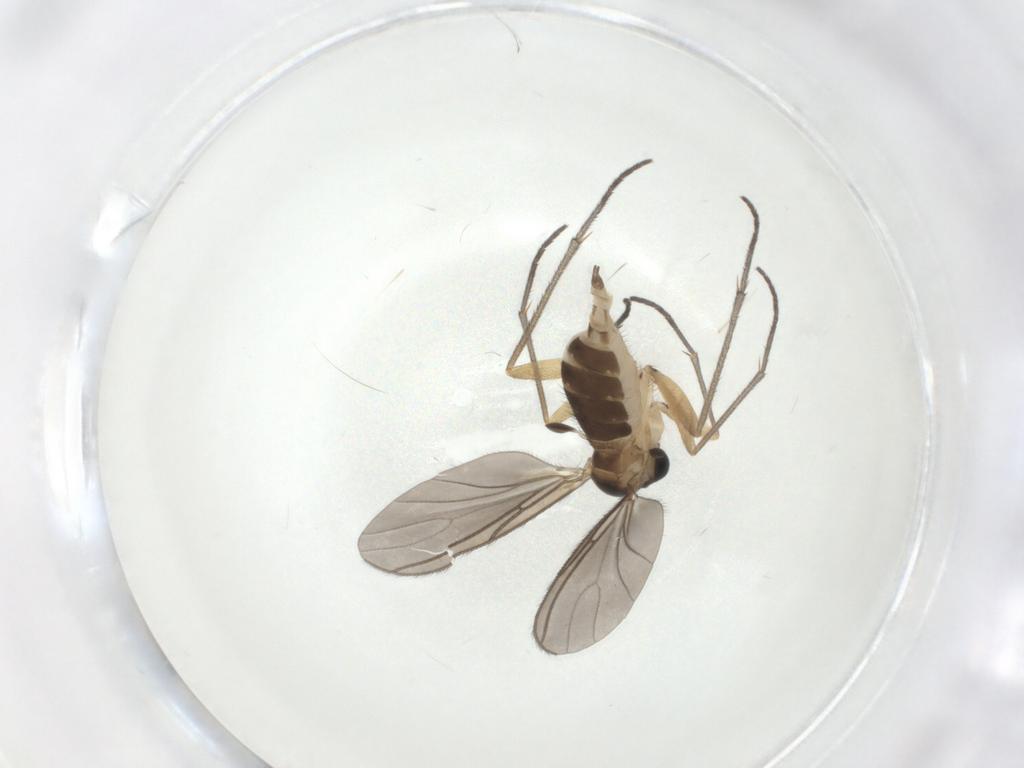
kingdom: Animalia
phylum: Arthropoda
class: Insecta
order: Diptera
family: Sciaridae
